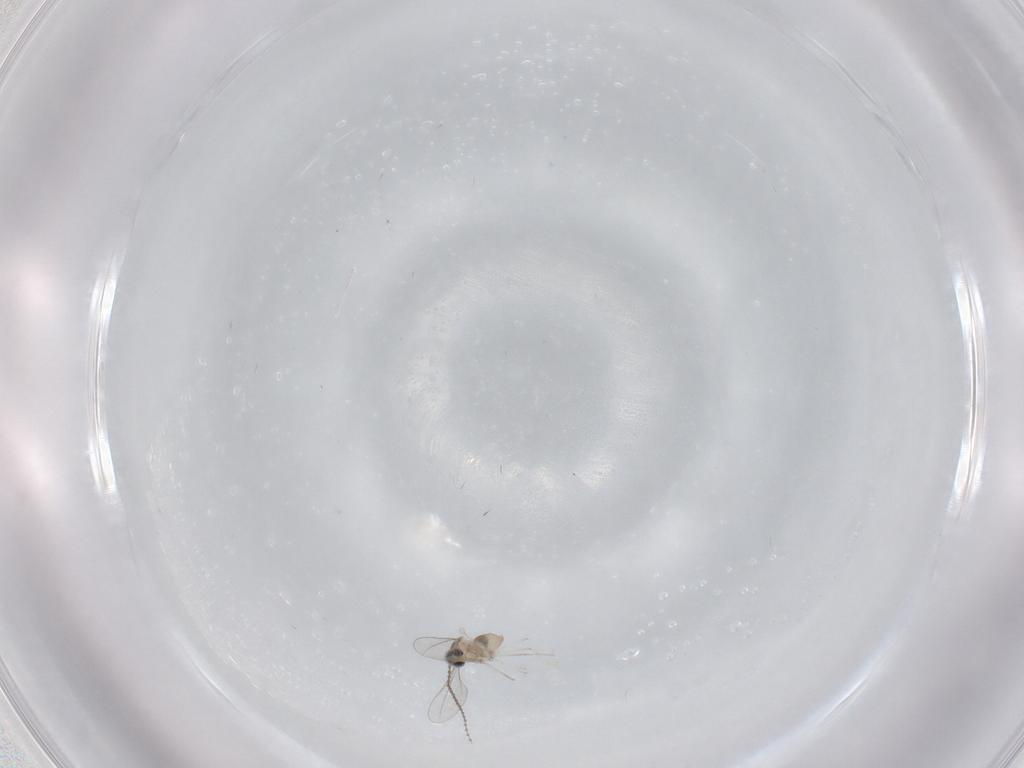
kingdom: Animalia
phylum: Arthropoda
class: Insecta
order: Diptera
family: Cecidomyiidae
